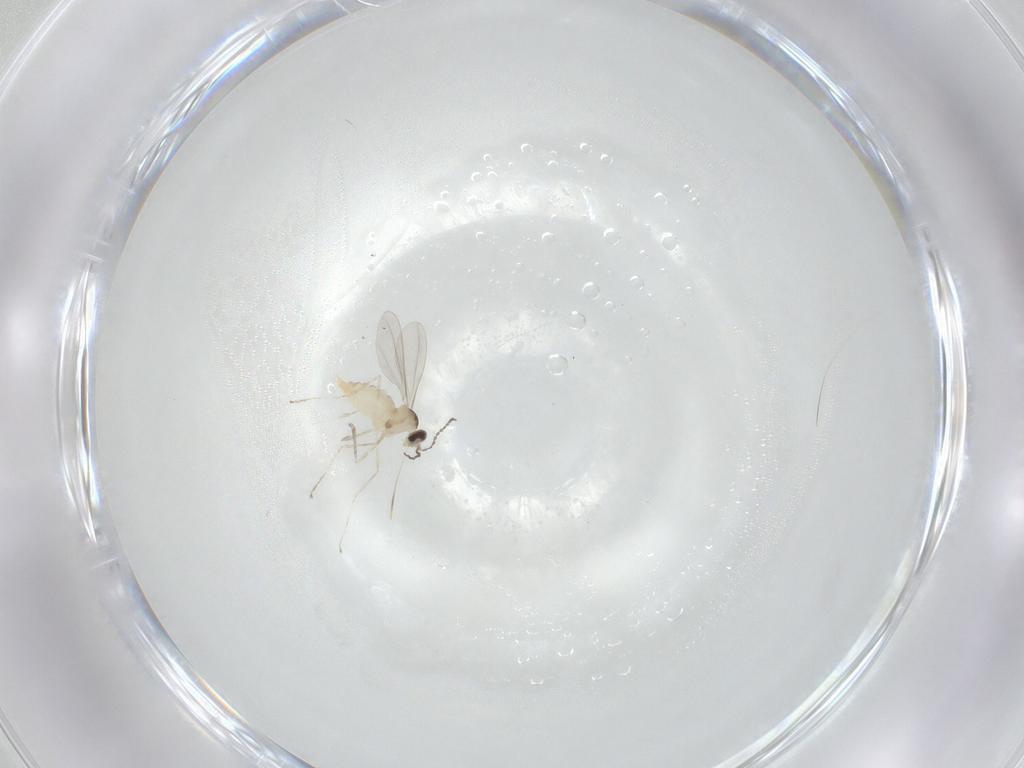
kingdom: Animalia
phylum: Arthropoda
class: Insecta
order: Diptera
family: Cecidomyiidae
